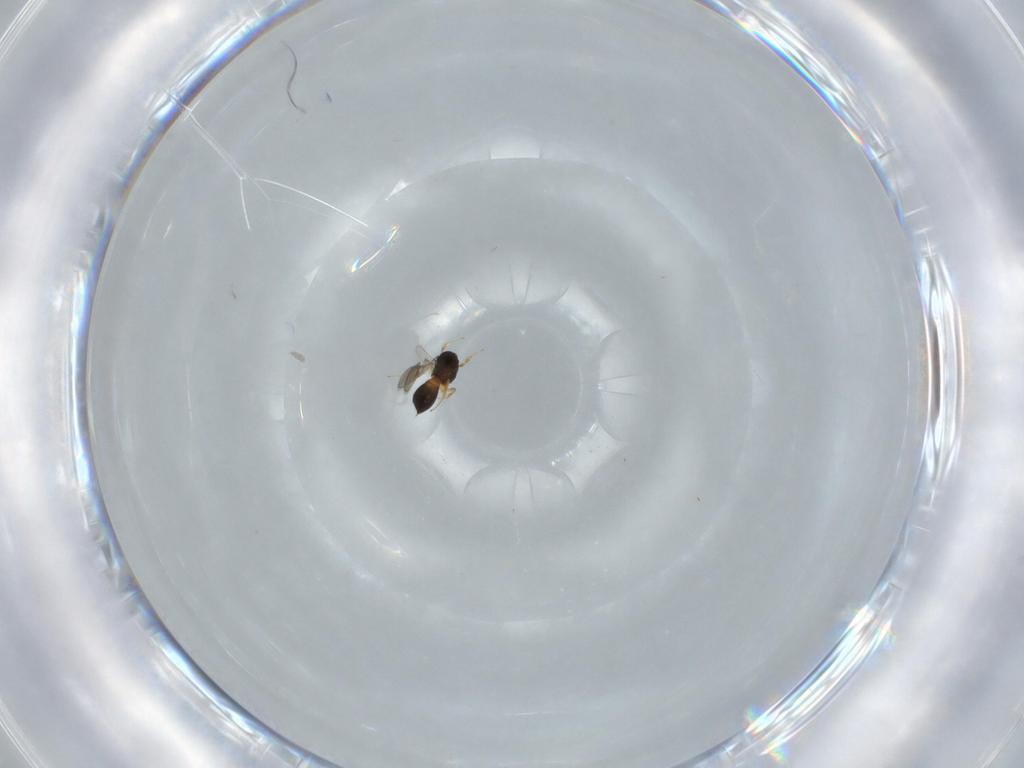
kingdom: Animalia
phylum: Arthropoda
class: Insecta
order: Hymenoptera
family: Scelionidae
